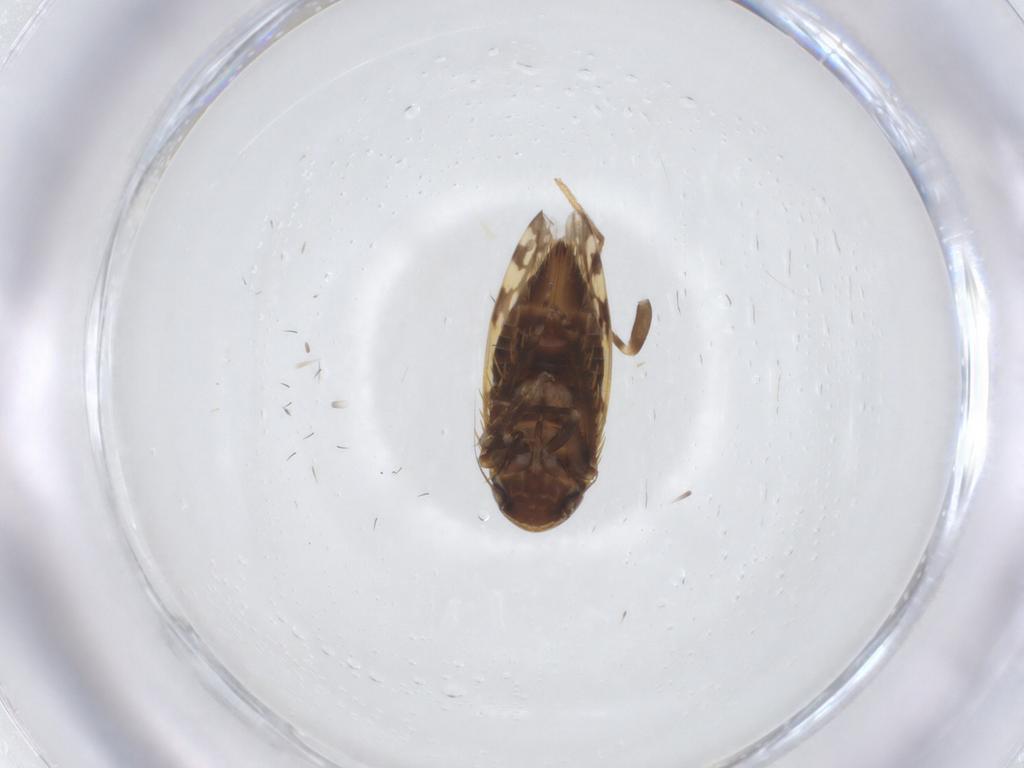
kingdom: Animalia
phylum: Arthropoda
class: Insecta
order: Hemiptera
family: Cicadellidae
